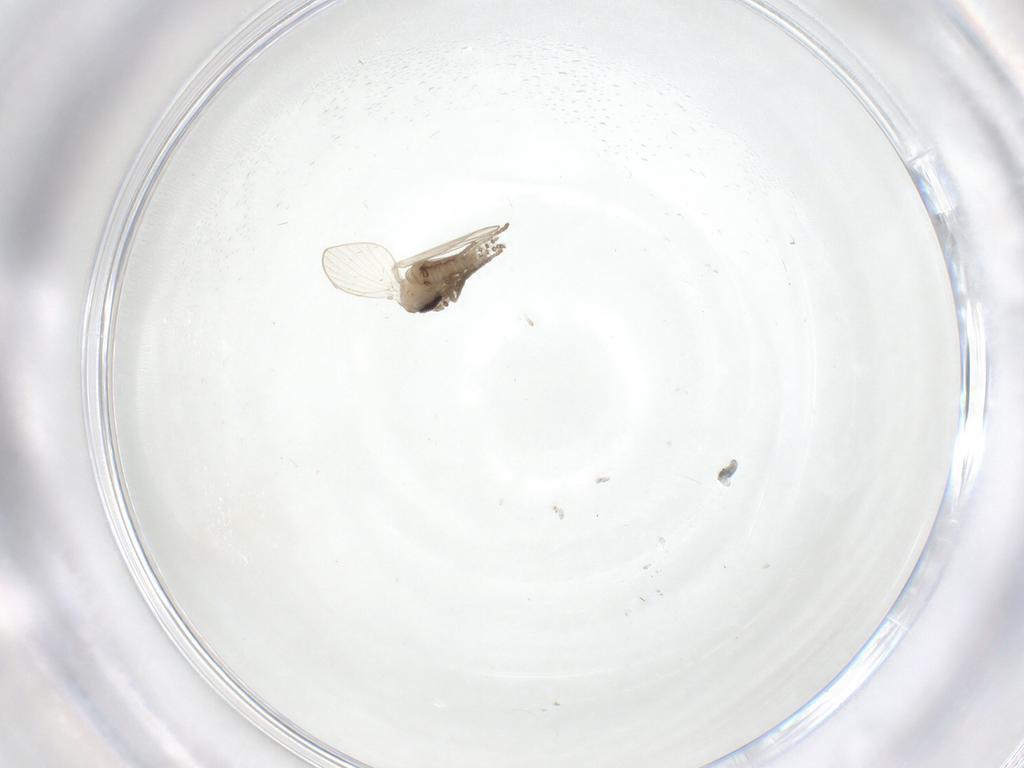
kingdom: Animalia
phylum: Arthropoda
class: Insecta
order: Diptera
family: Limoniidae
